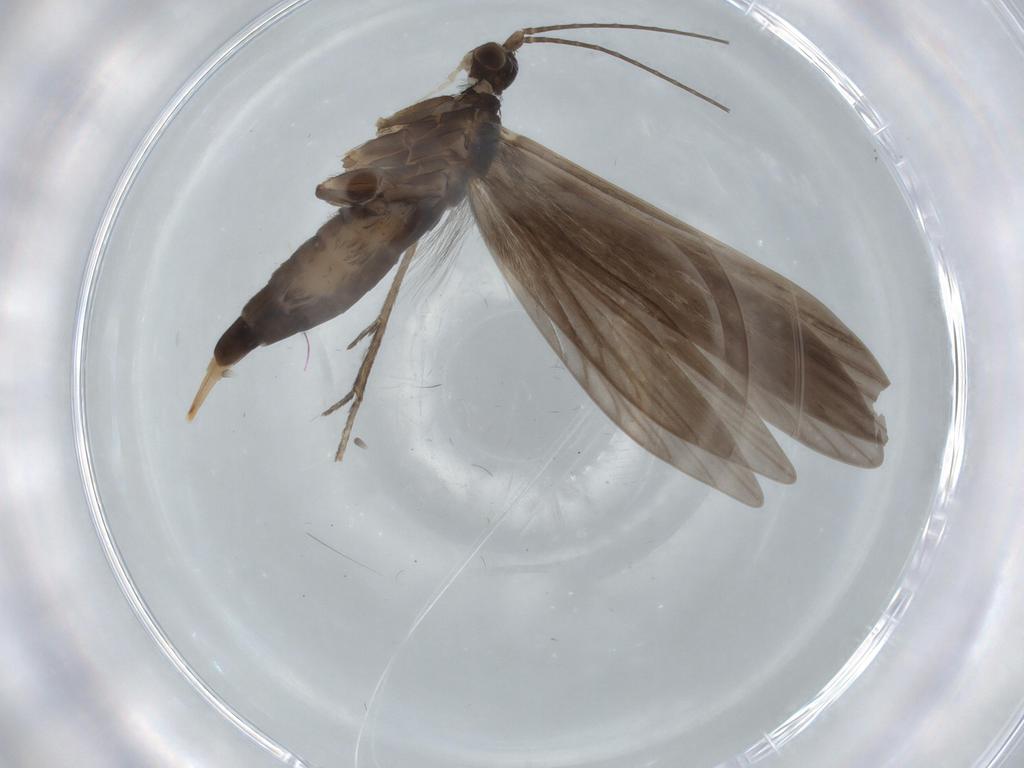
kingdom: Animalia
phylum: Arthropoda
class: Insecta
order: Trichoptera
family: Xiphocentronidae
